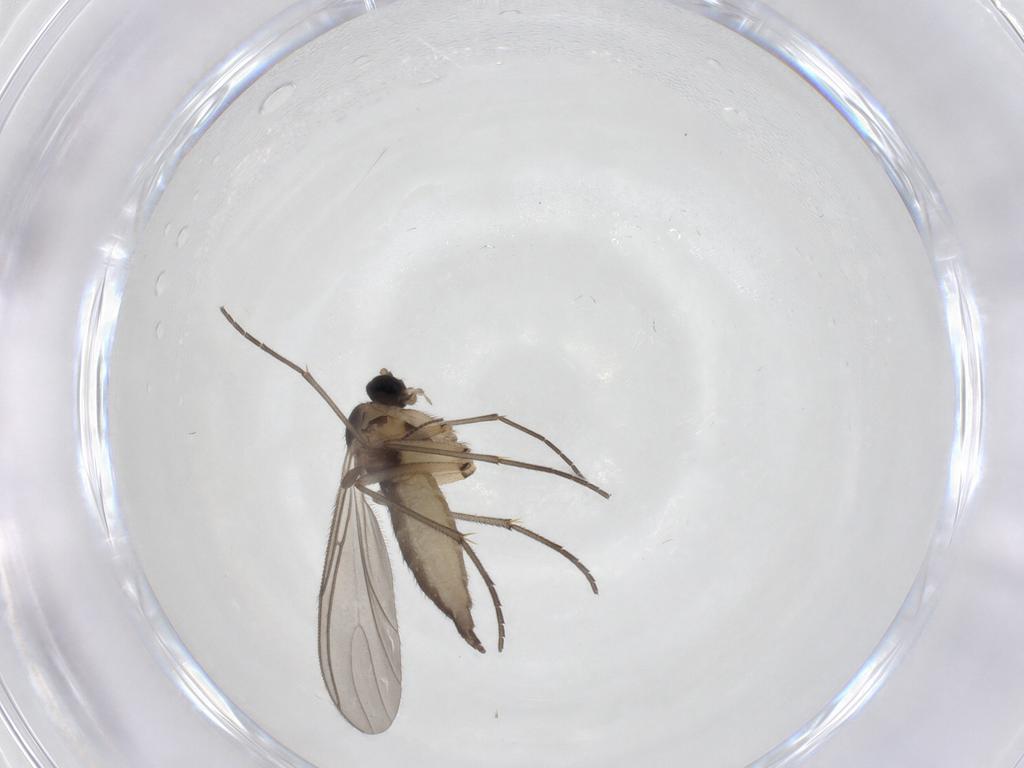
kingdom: Animalia
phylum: Arthropoda
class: Insecta
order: Diptera
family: Sciaridae
